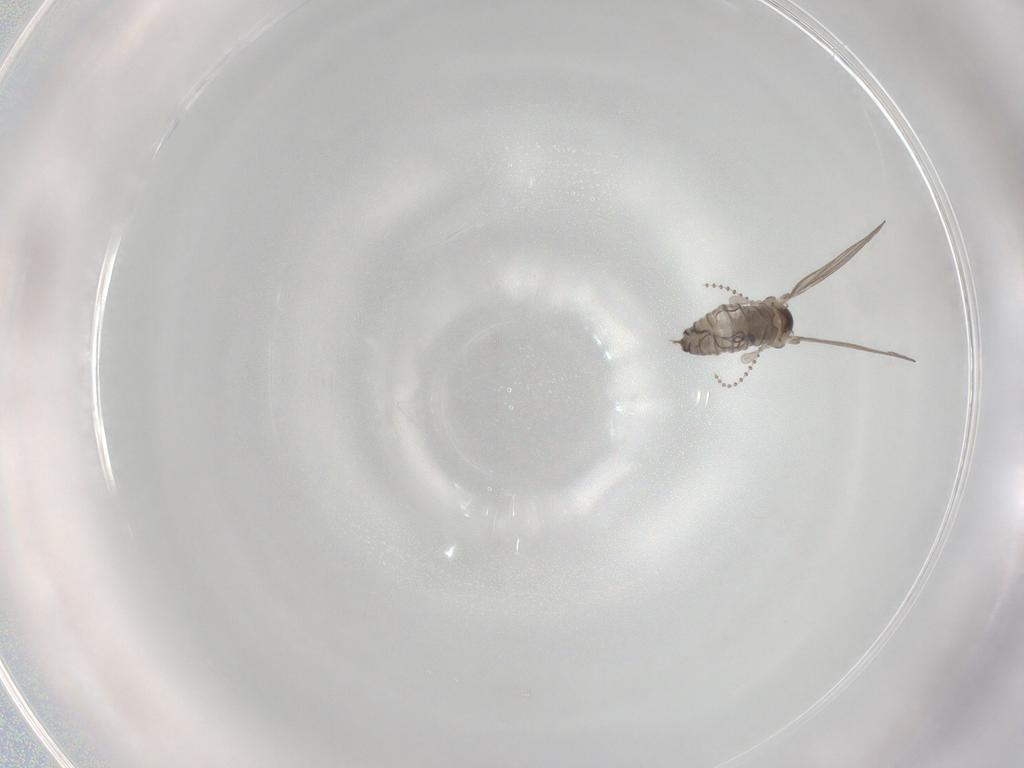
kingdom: Animalia
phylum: Arthropoda
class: Insecta
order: Diptera
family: Psychodidae
